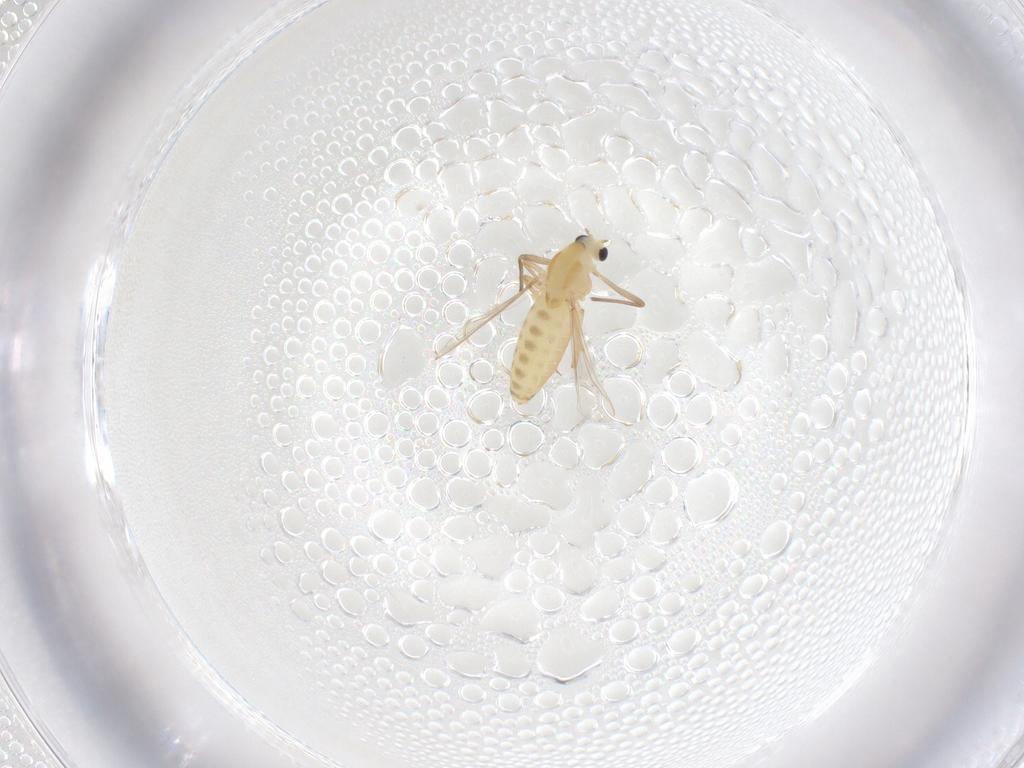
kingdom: Animalia
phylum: Arthropoda
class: Insecta
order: Diptera
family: Chironomidae
